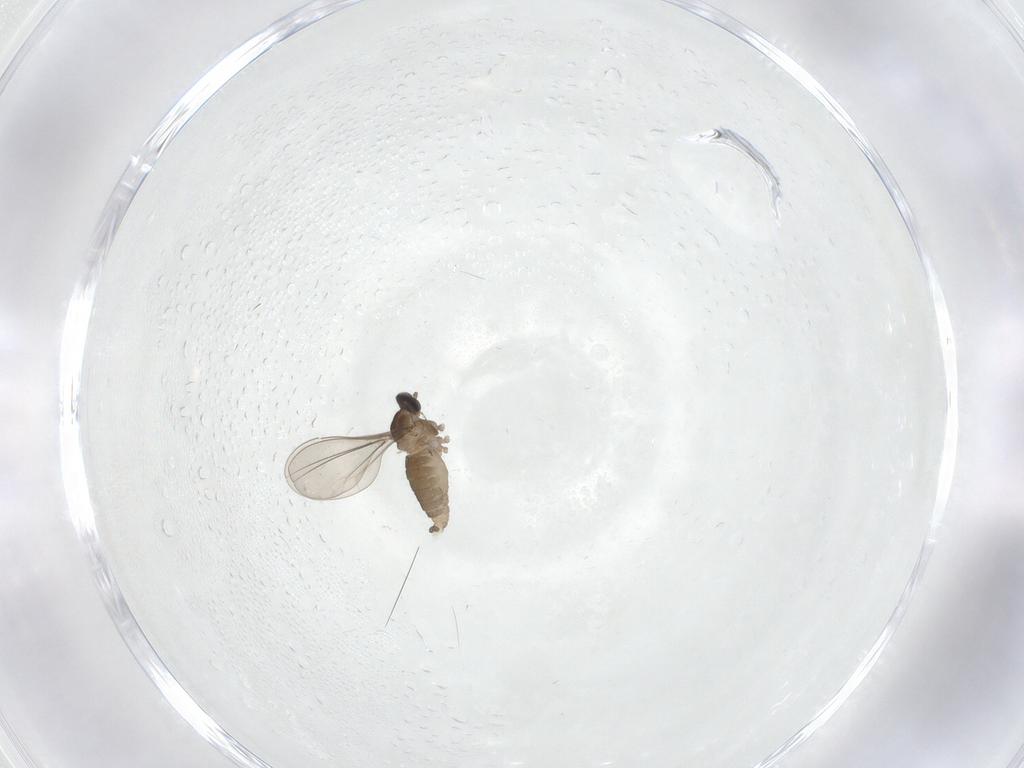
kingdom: Animalia
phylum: Arthropoda
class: Insecta
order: Diptera
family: Cecidomyiidae
